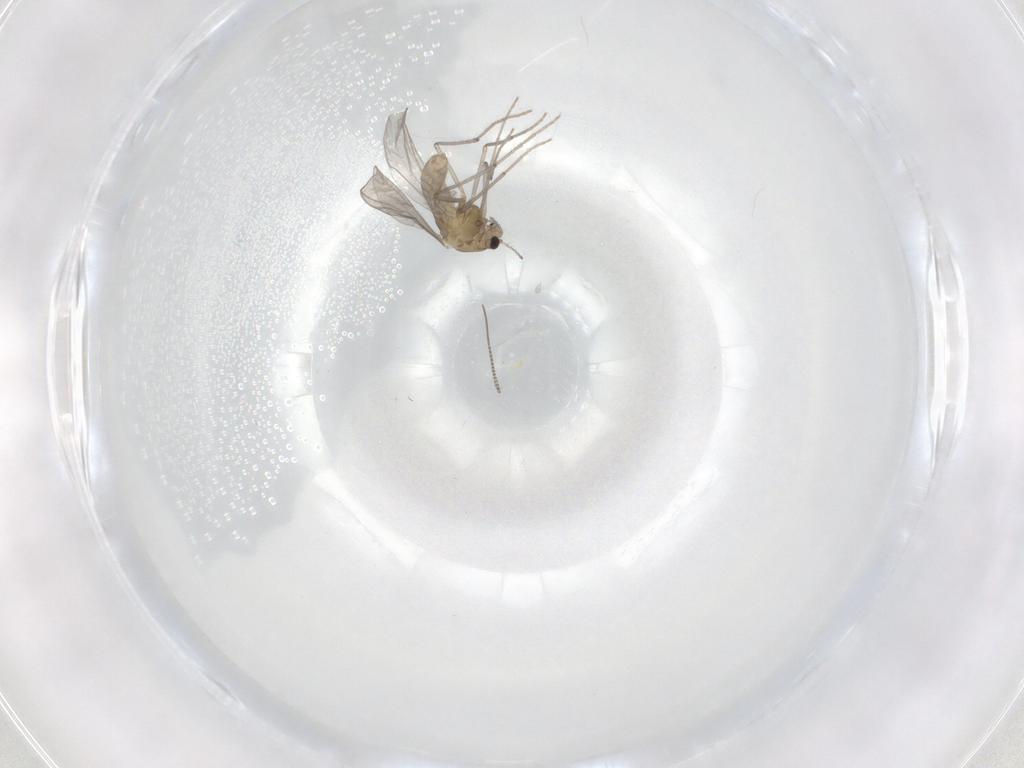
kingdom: Animalia
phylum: Arthropoda
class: Insecta
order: Diptera
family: Chironomidae
